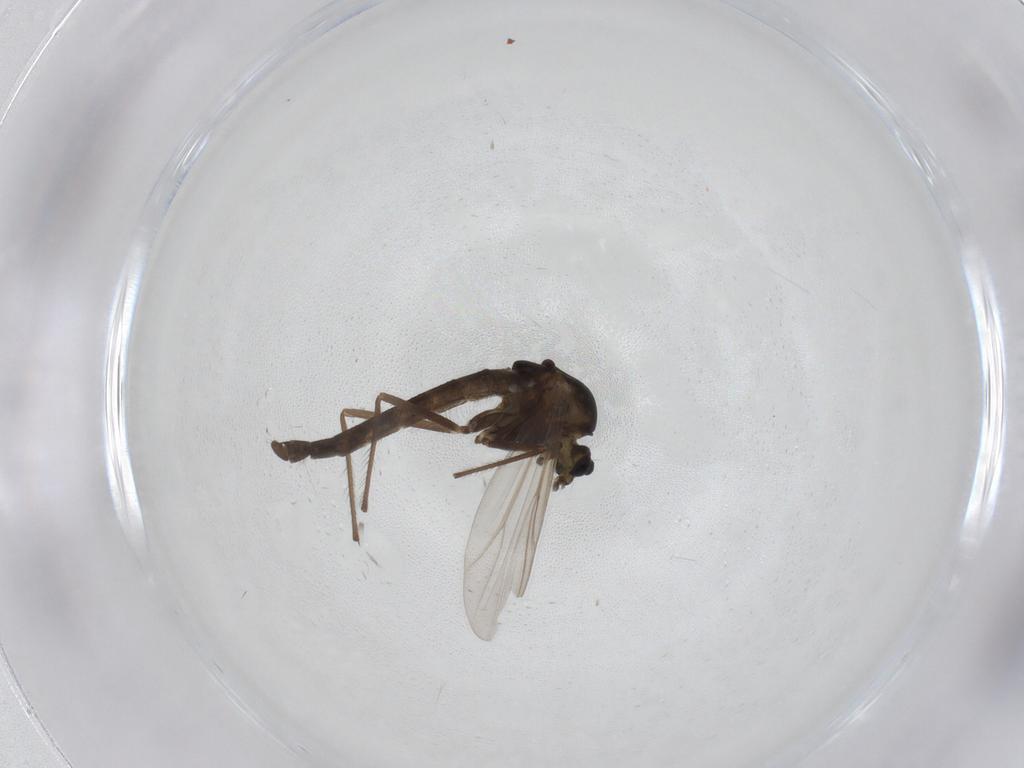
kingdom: Animalia
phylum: Arthropoda
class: Insecta
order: Diptera
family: Chironomidae
